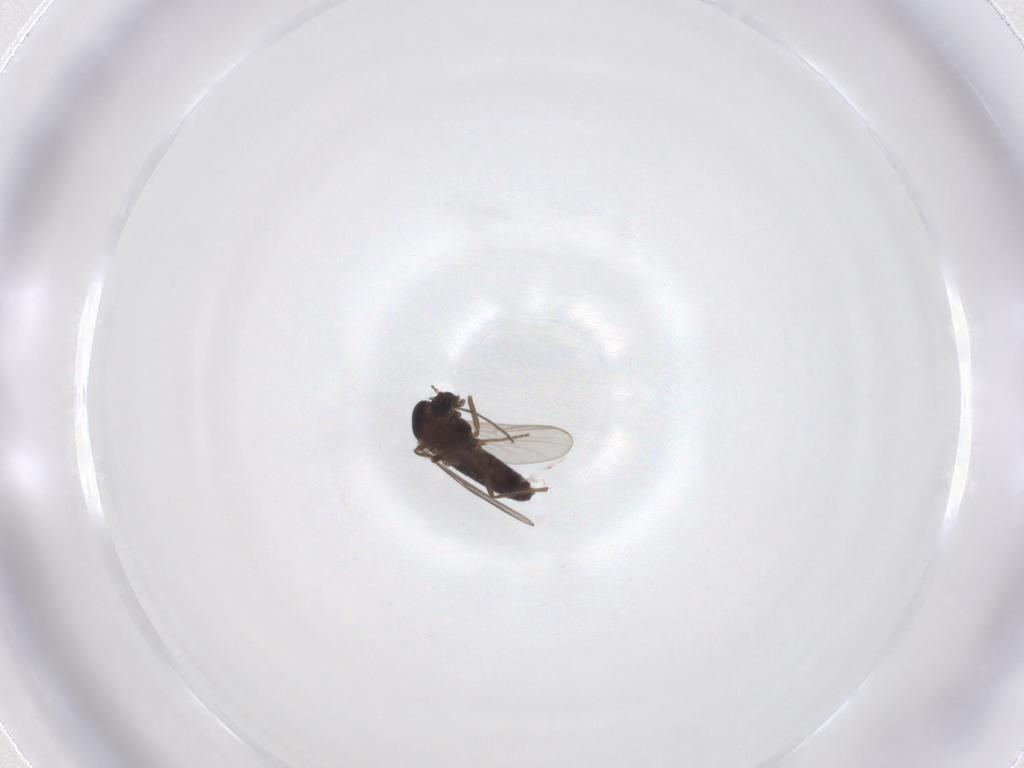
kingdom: Animalia
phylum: Arthropoda
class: Insecta
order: Diptera
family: Chironomidae
